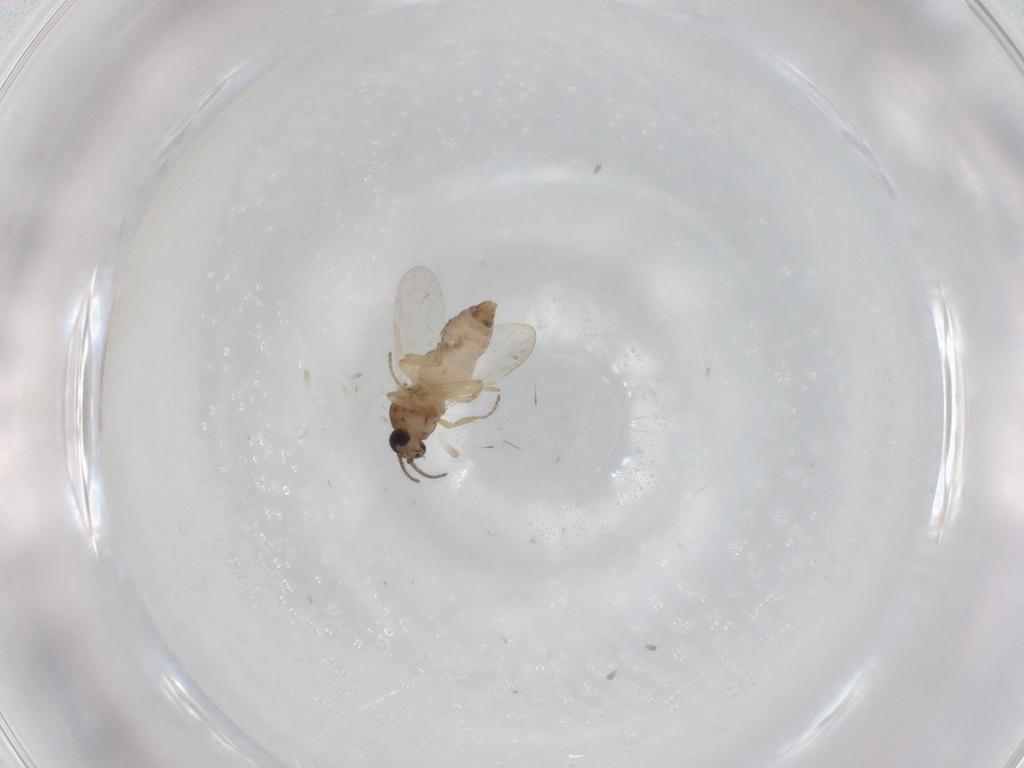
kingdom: Animalia
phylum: Arthropoda
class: Insecta
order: Diptera
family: Ceratopogonidae
